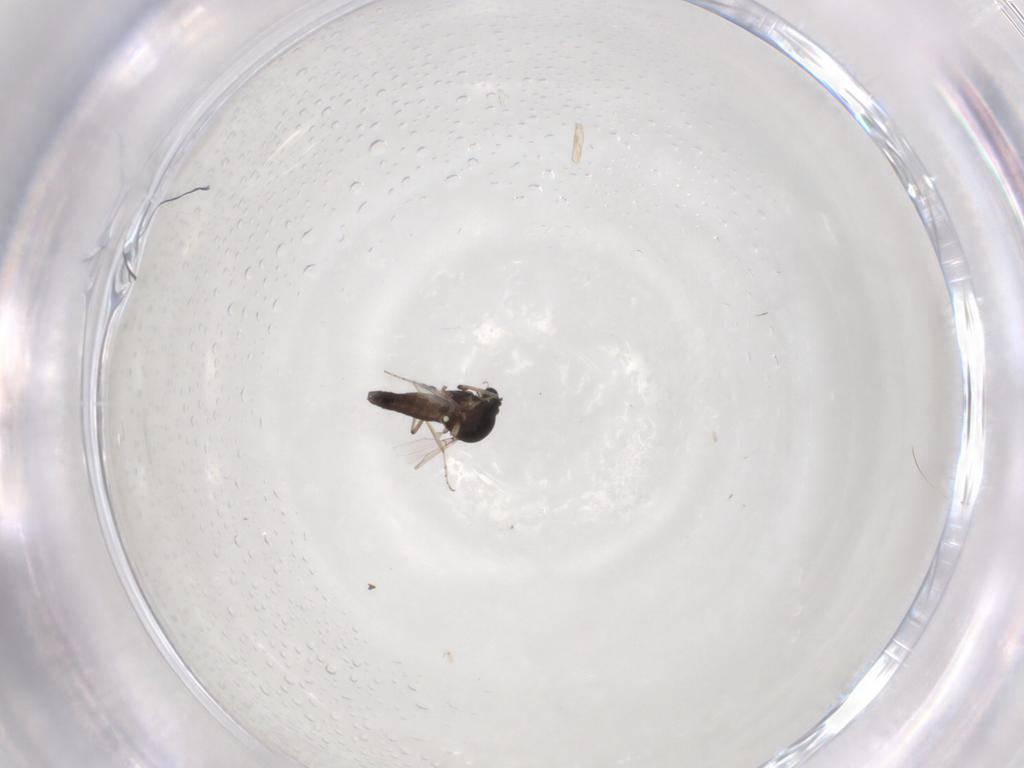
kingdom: Animalia
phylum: Arthropoda
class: Insecta
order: Diptera
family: Ceratopogonidae
